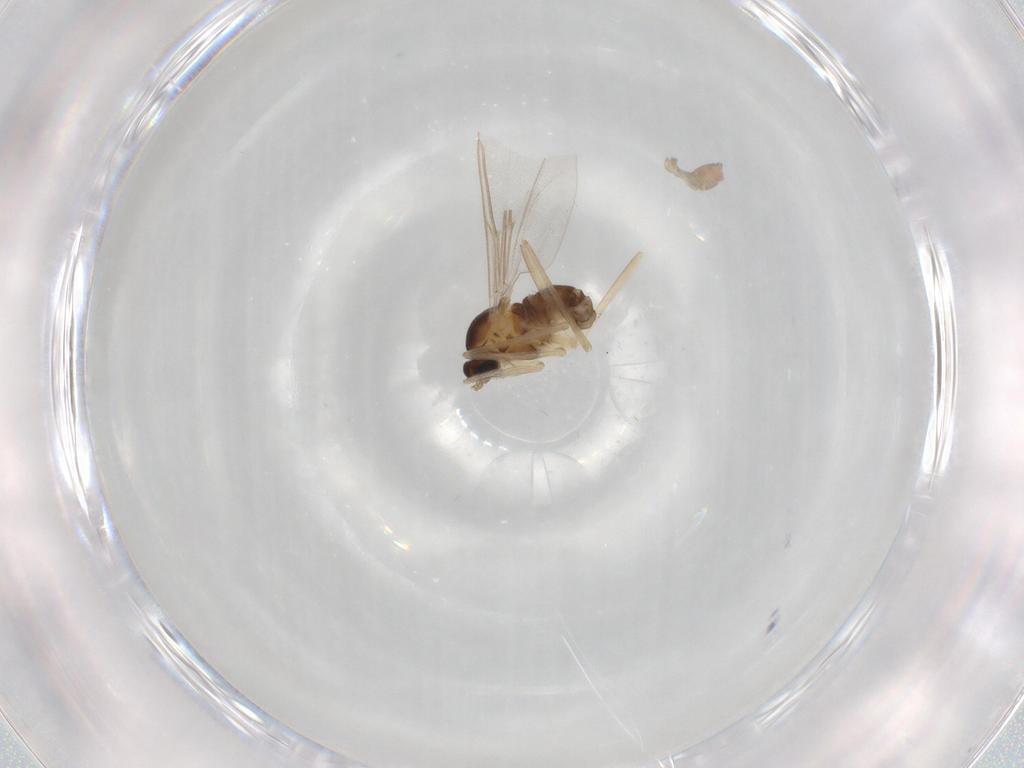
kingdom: Animalia
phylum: Arthropoda
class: Insecta
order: Diptera
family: Cecidomyiidae
